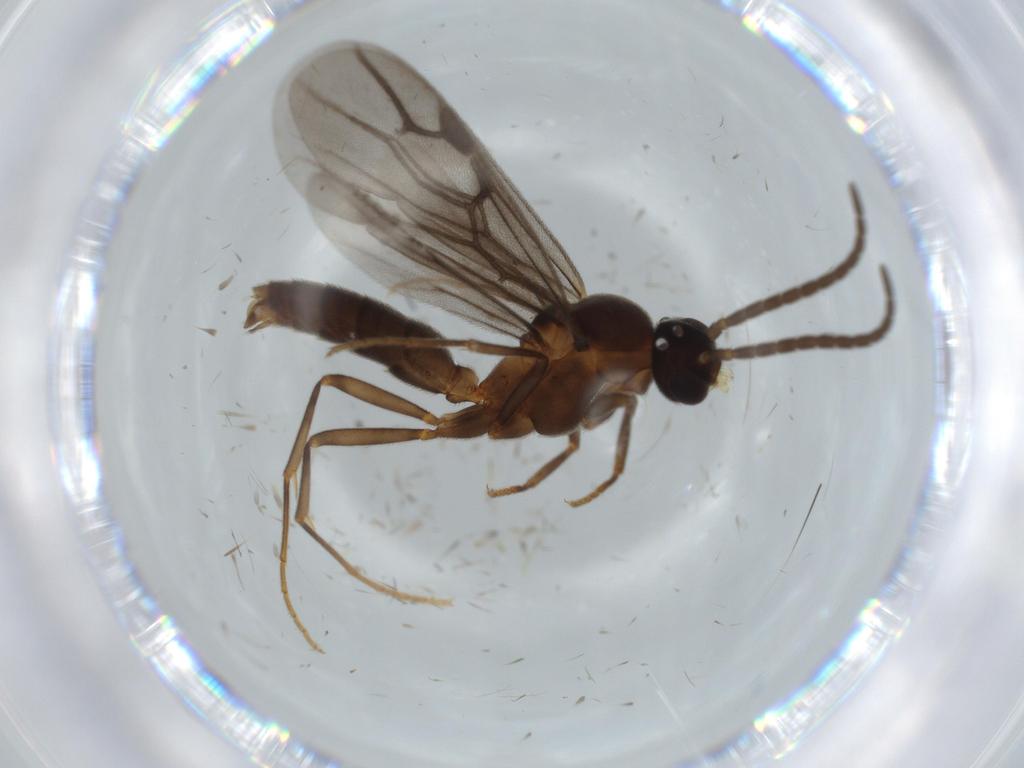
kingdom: Animalia
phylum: Arthropoda
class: Insecta
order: Hymenoptera
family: Formicidae
